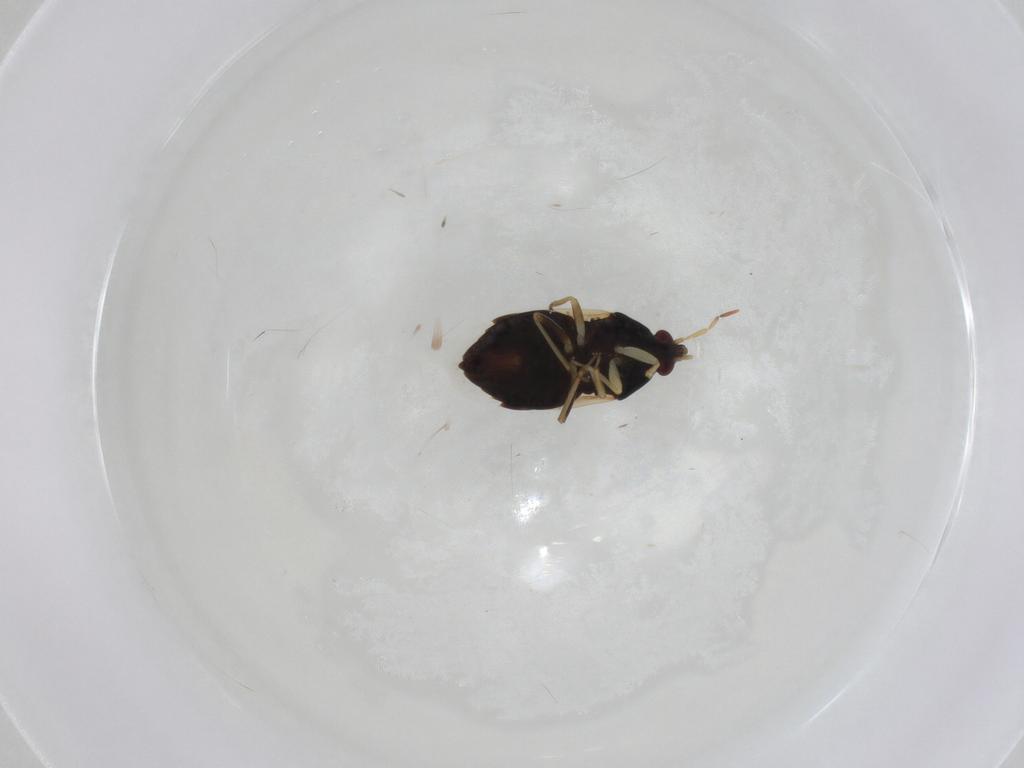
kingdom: Animalia
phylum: Arthropoda
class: Insecta
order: Hemiptera
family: Anthocoridae
